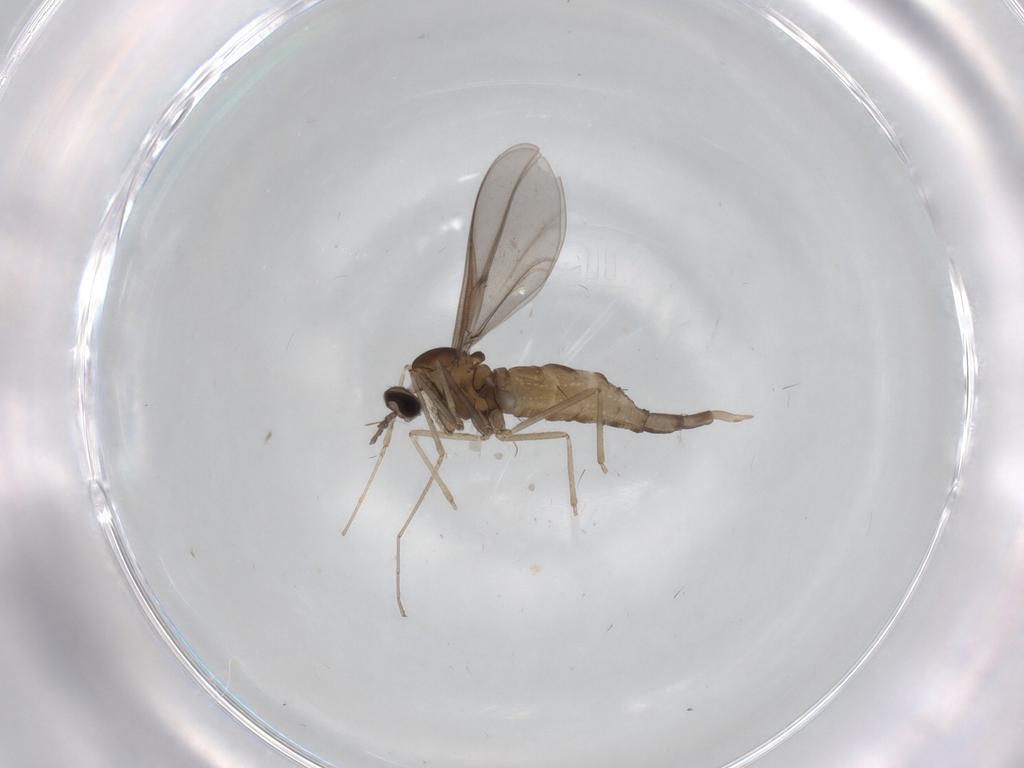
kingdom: Animalia
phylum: Arthropoda
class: Insecta
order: Diptera
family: Cecidomyiidae
